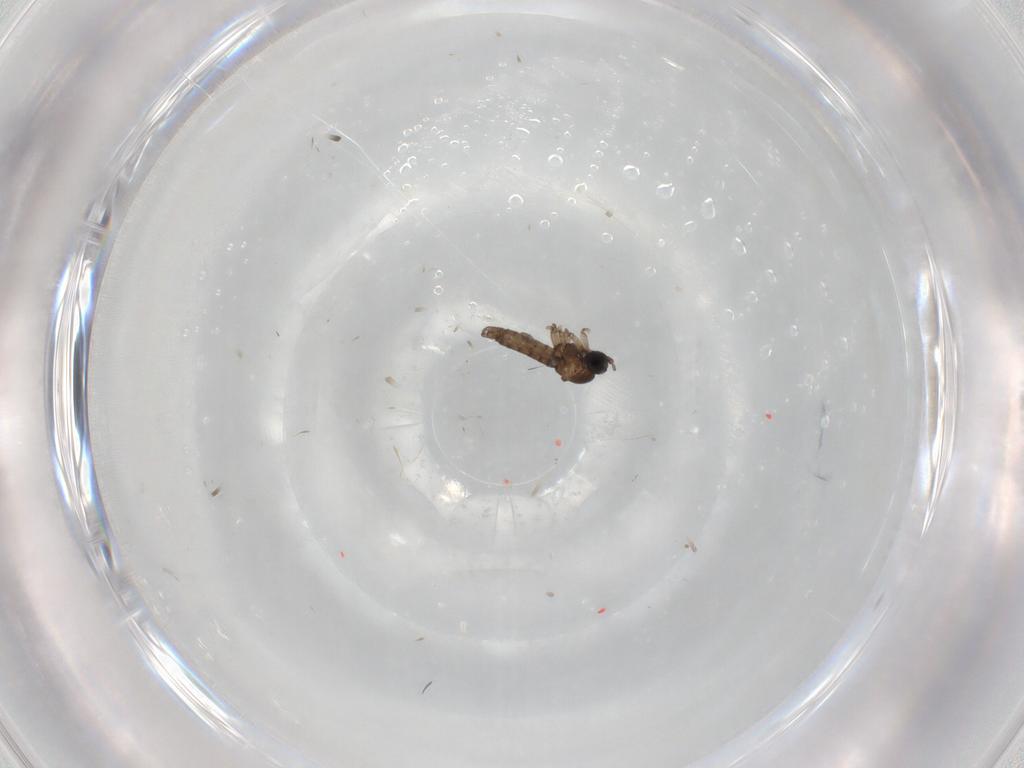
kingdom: Animalia
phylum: Arthropoda
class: Insecta
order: Diptera
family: Sciaridae
